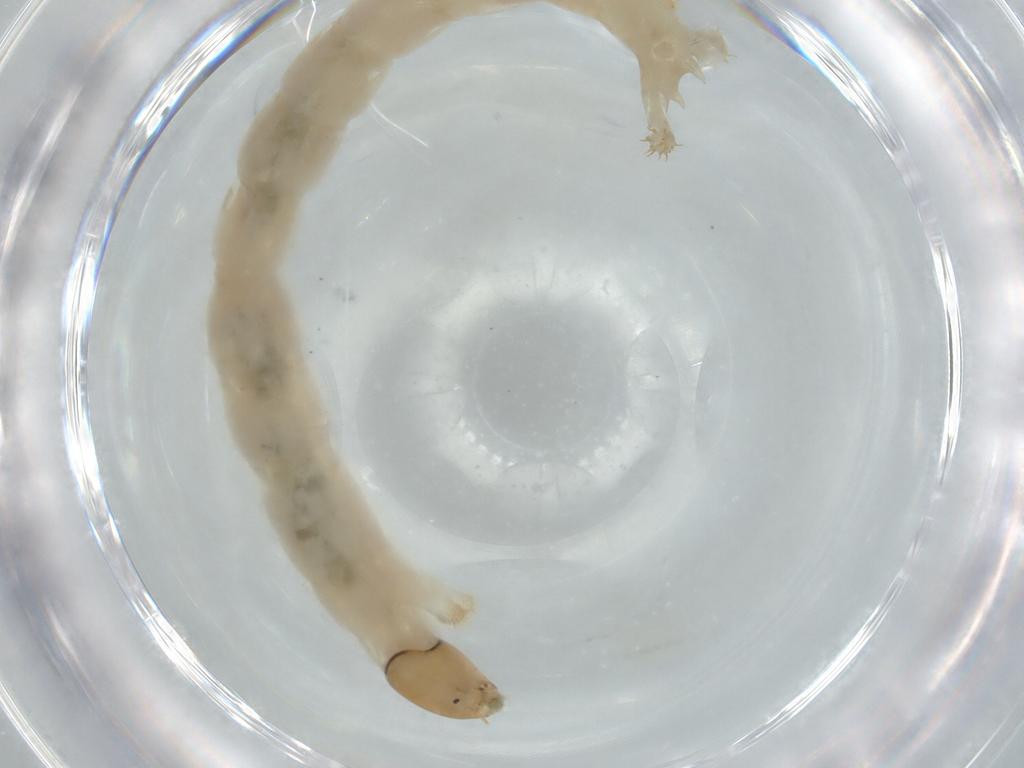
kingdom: Animalia
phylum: Arthropoda
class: Insecta
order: Diptera
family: Chironomidae
